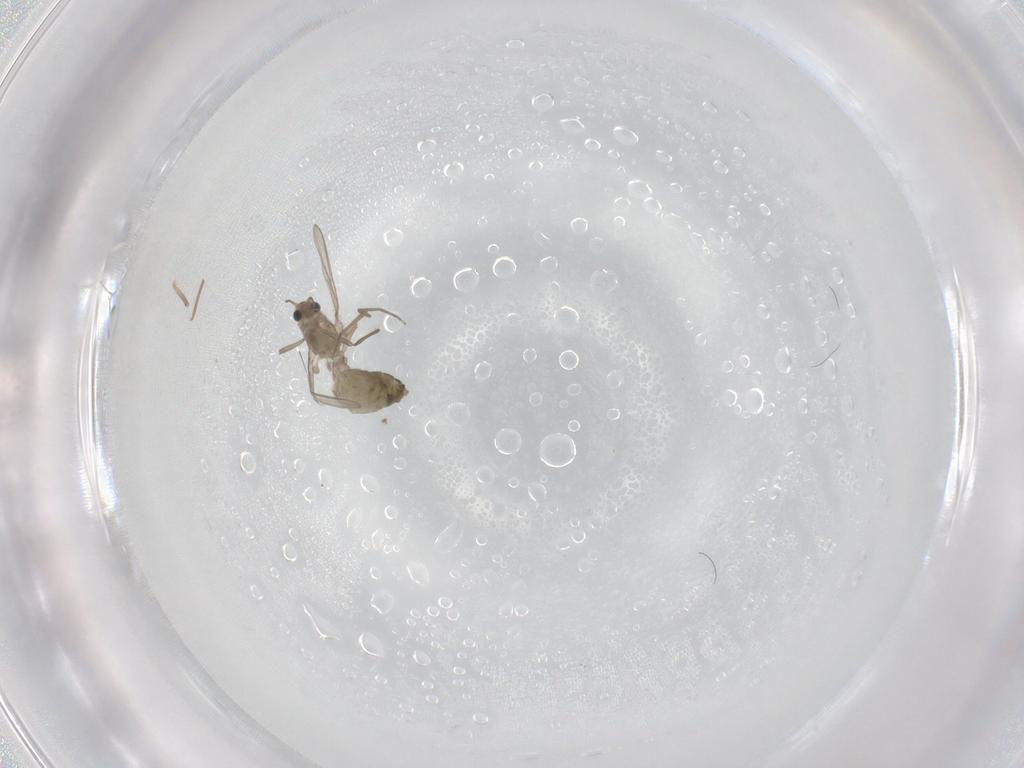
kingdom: Animalia
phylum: Arthropoda
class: Insecta
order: Diptera
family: Chironomidae
